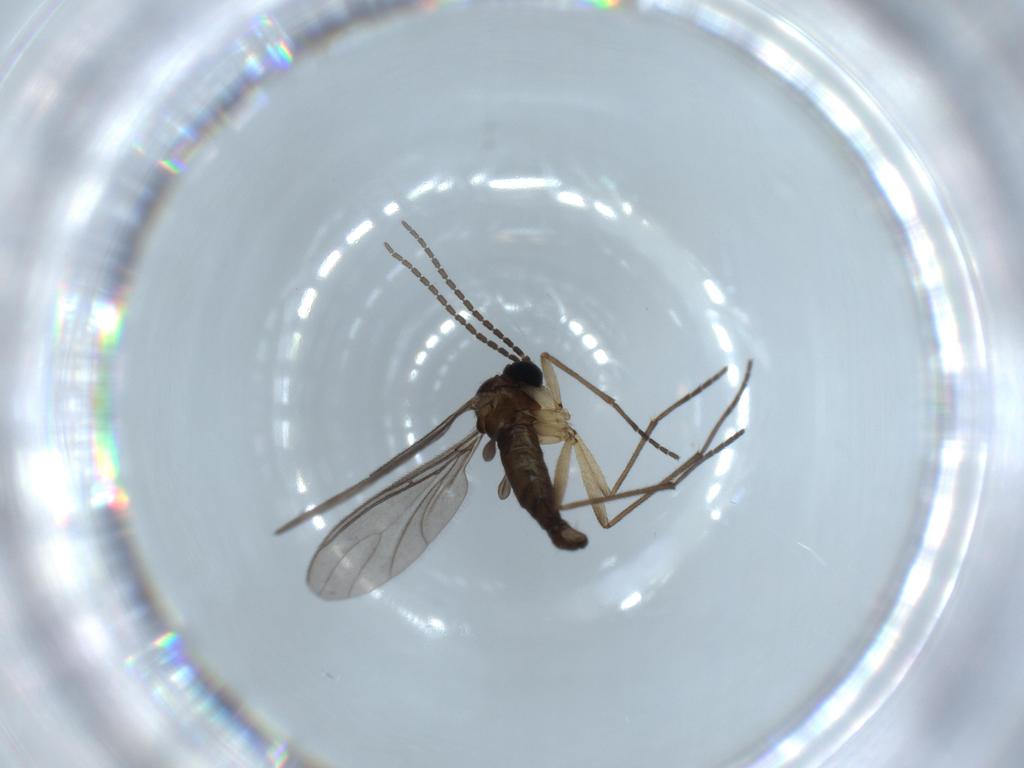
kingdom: Animalia
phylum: Arthropoda
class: Insecta
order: Diptera
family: Sciaridae
